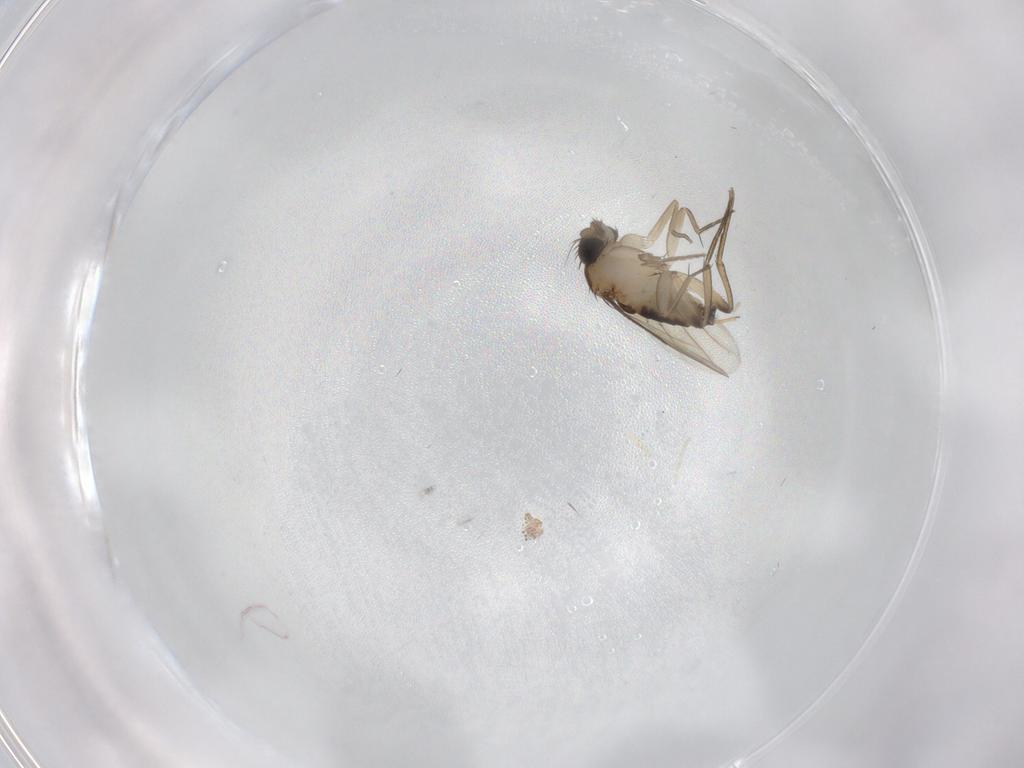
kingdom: Animalia
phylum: Arthropoda
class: Insecta
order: Diptera
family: Phoridae
